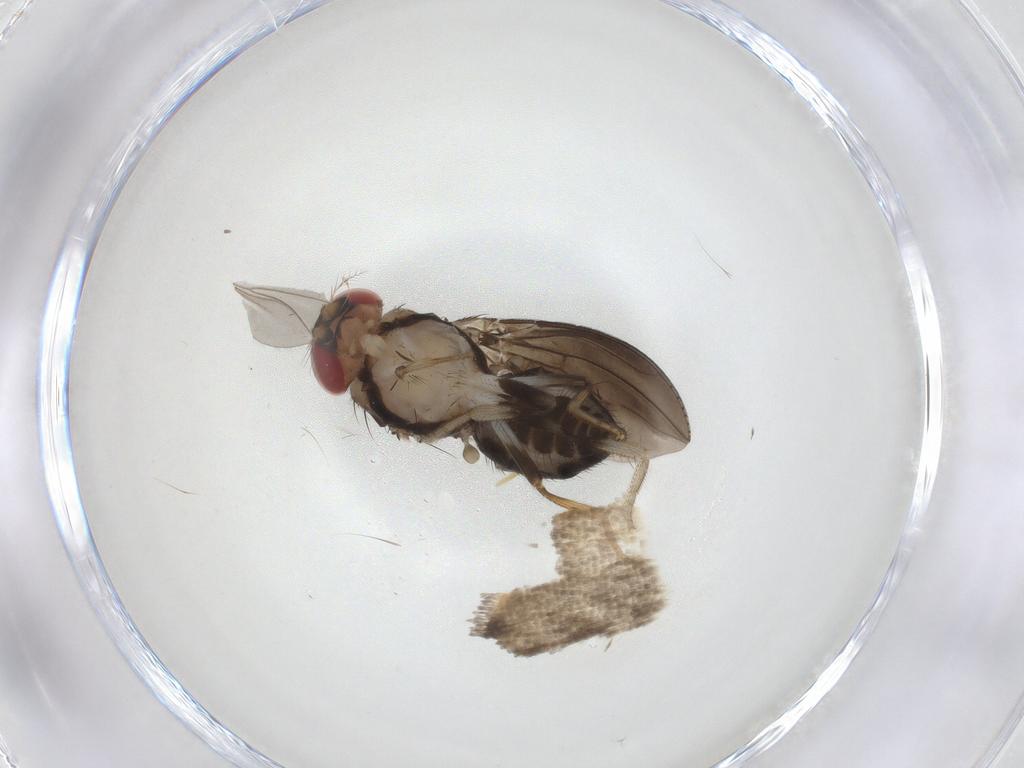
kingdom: Animalia
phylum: Arthropoda
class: Insecta
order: Diptera
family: Drosophilidae
